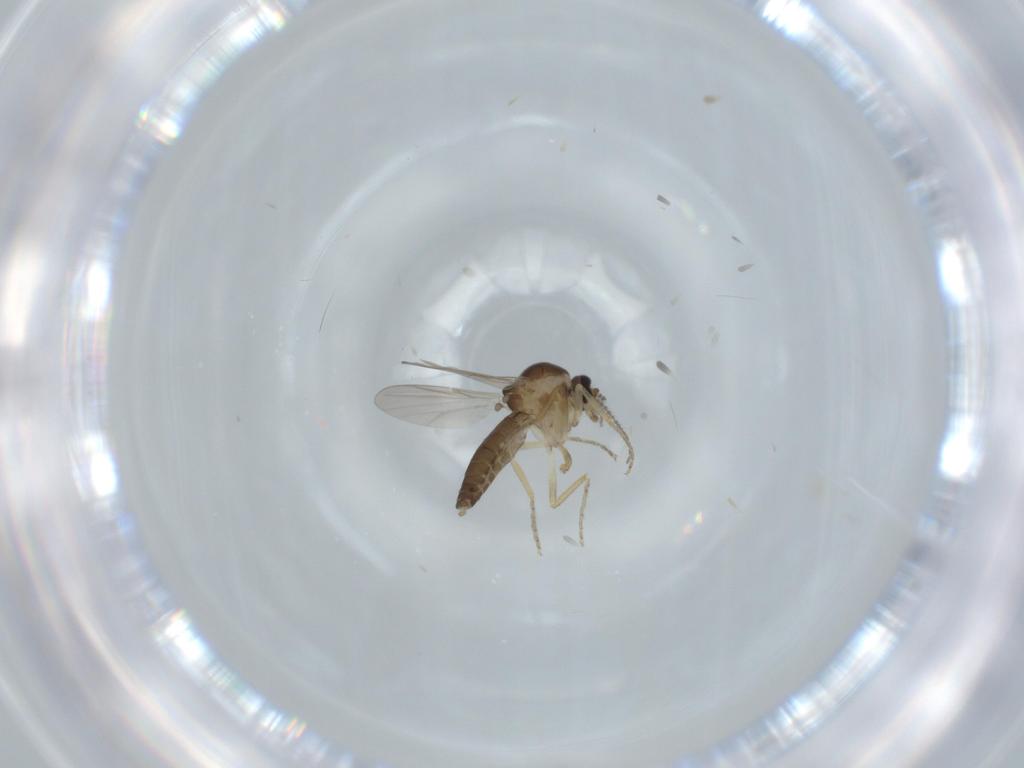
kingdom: Animalia
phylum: Arthropoda
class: Insecta
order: Diptera
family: Ceratopogonidae
